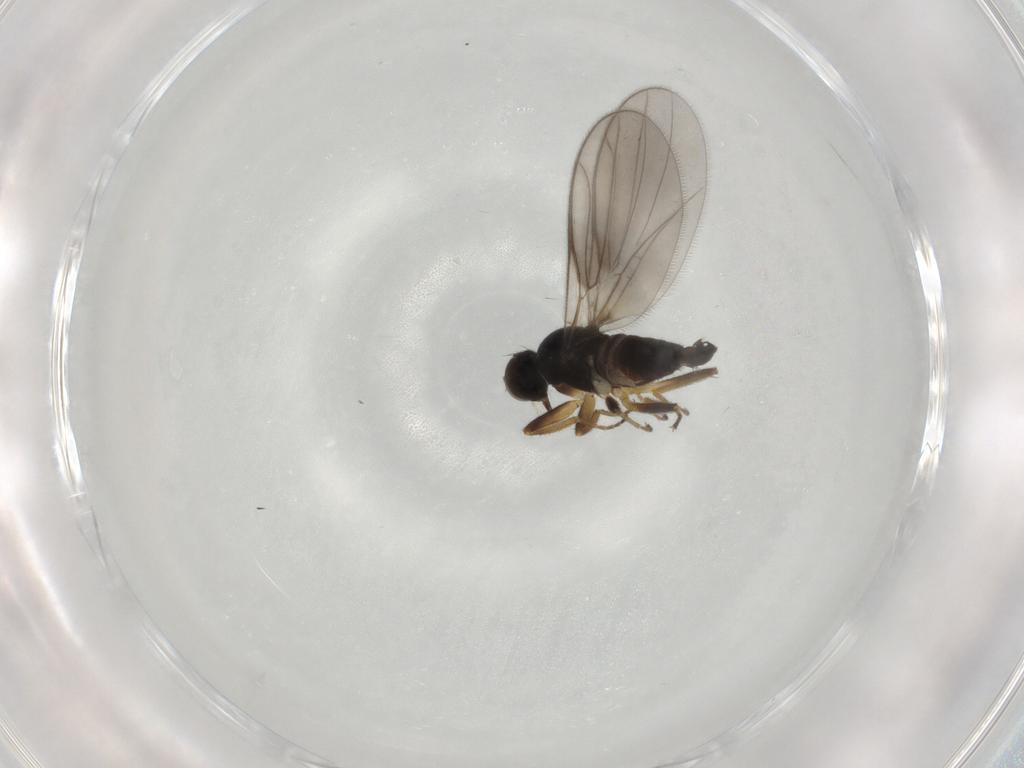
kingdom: Animalia
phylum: Arthropoda
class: Insecta
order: Diptera
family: Hybotidae
